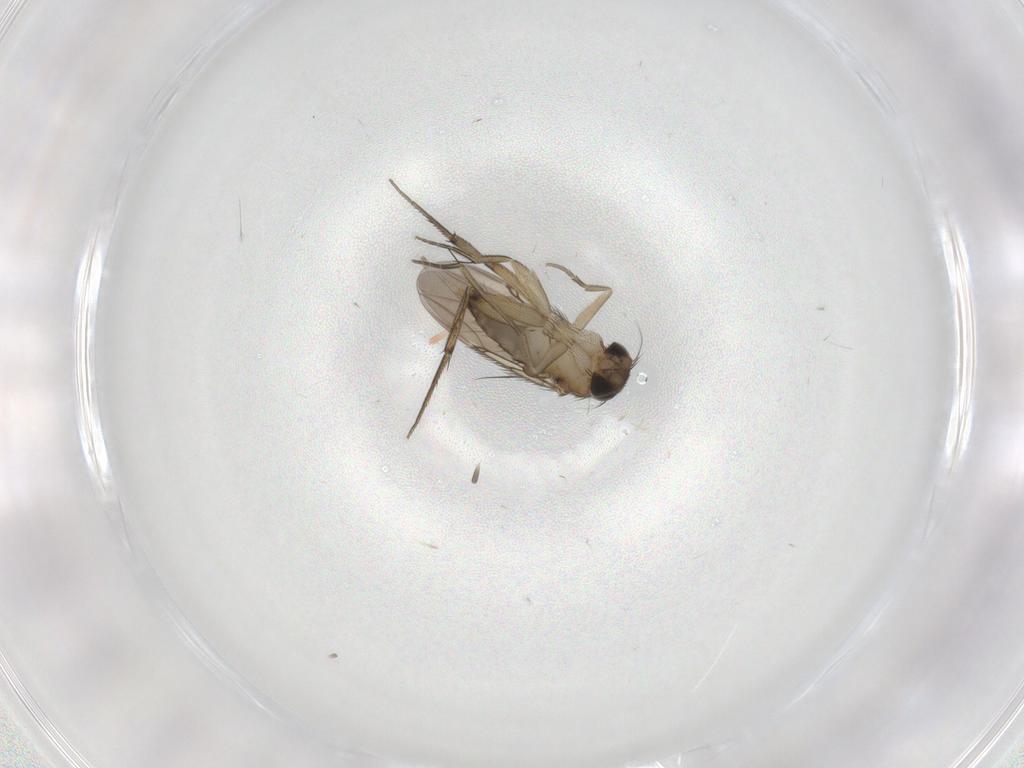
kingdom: Animalia
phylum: Arthropoda
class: Insecta
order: Diptera
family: Phoridae
